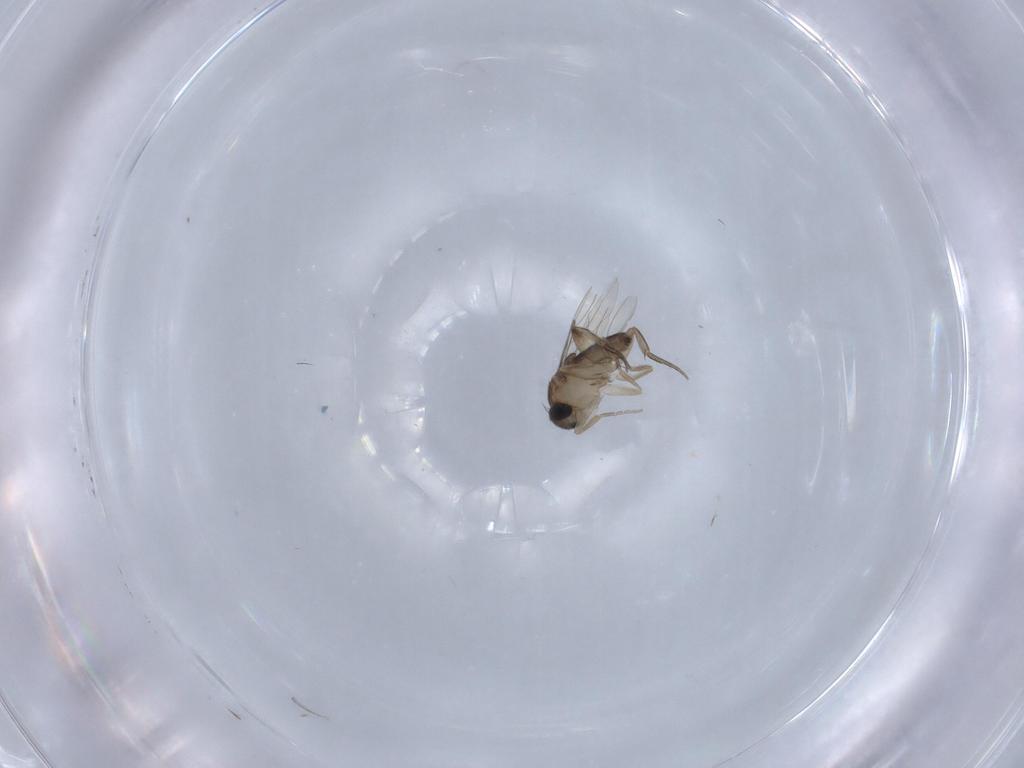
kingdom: Animalia
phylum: Arthropoda
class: Insecta
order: Diptera
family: Phoridae
